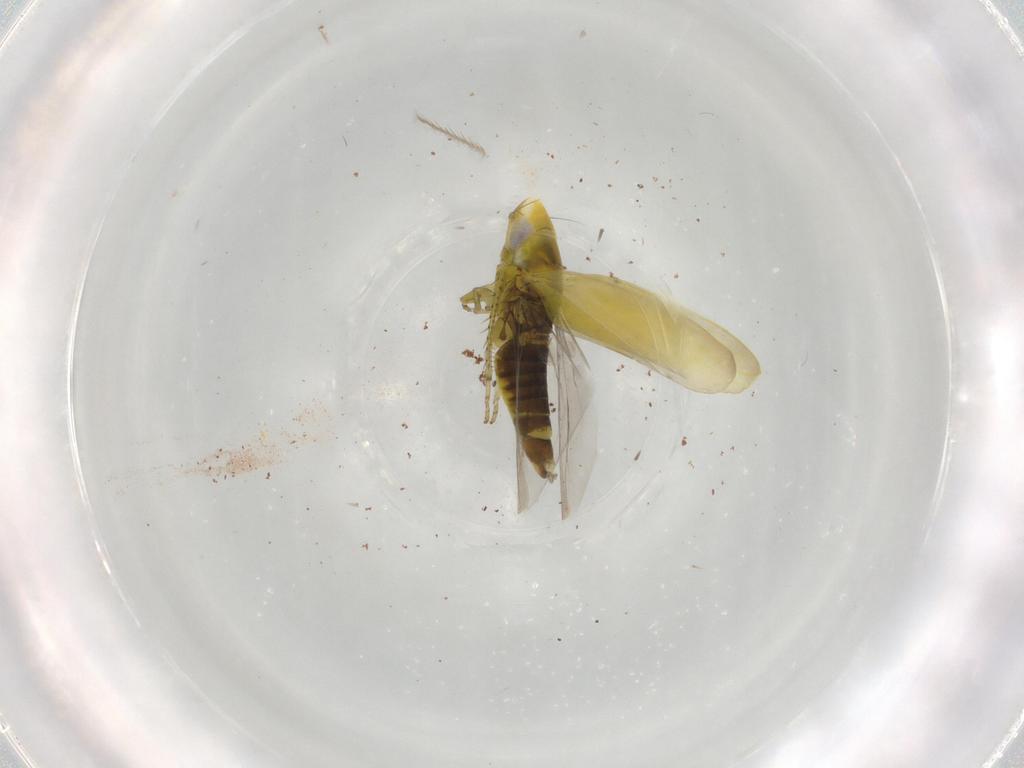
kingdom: Animalia
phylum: Arthropoda
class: Insecta
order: Hemiptera
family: Cicadellidae
